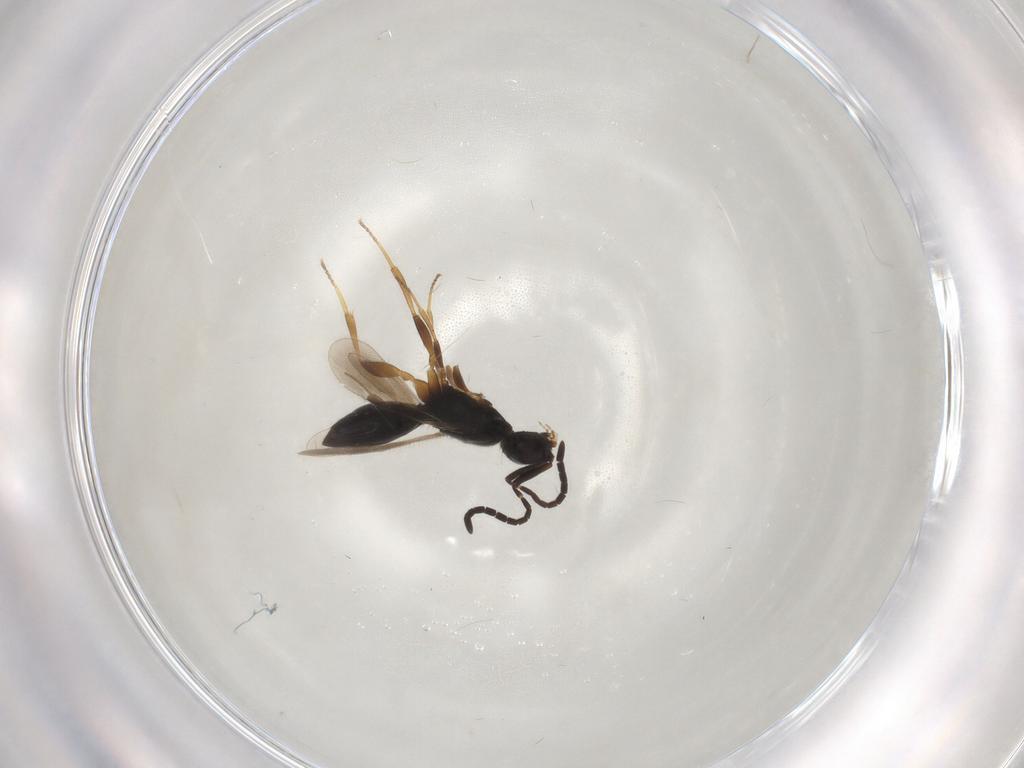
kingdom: Animalia
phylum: Arthropoda
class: Insecta
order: Hymenoptera
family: Megaspilidae
